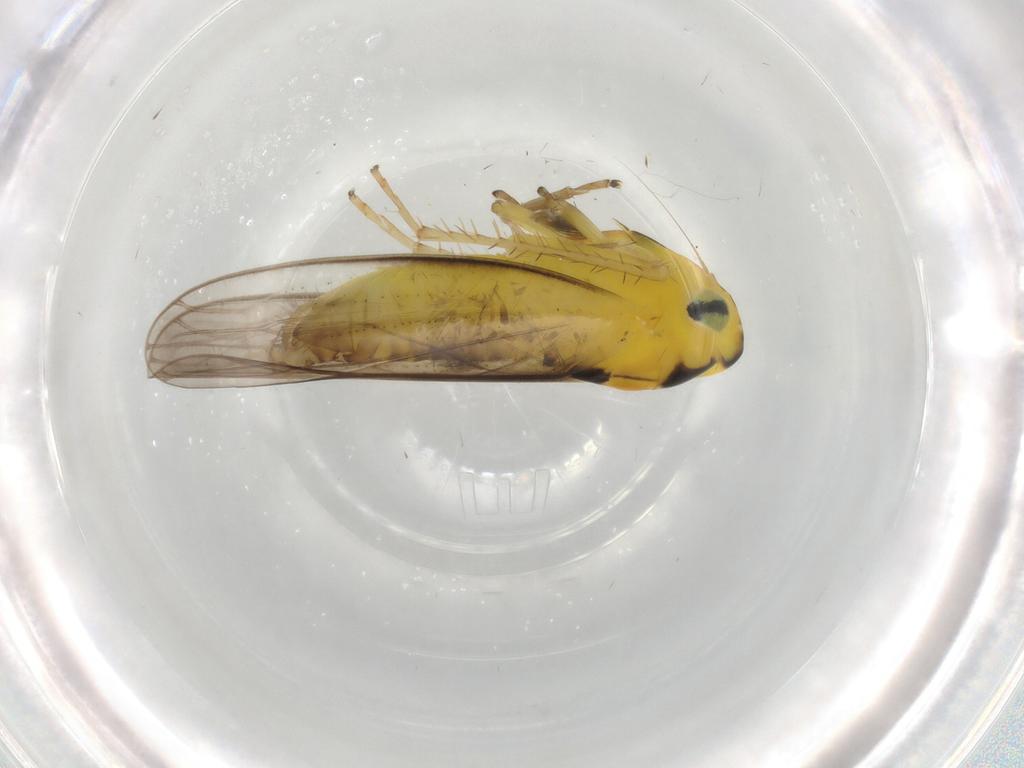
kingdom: Animalia
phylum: Arthropoda
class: Insecta
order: Hemiptera
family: Cicadellidae
